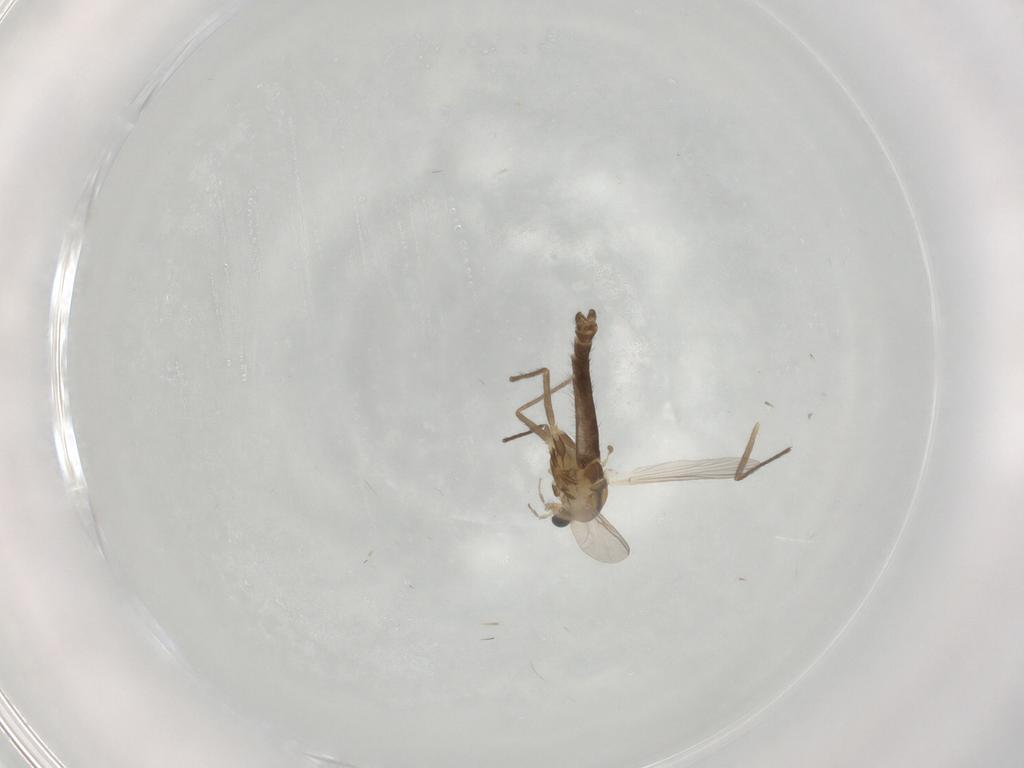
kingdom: Animalia
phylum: Arthropoda
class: Insecta
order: Diptera
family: Chironomidae
